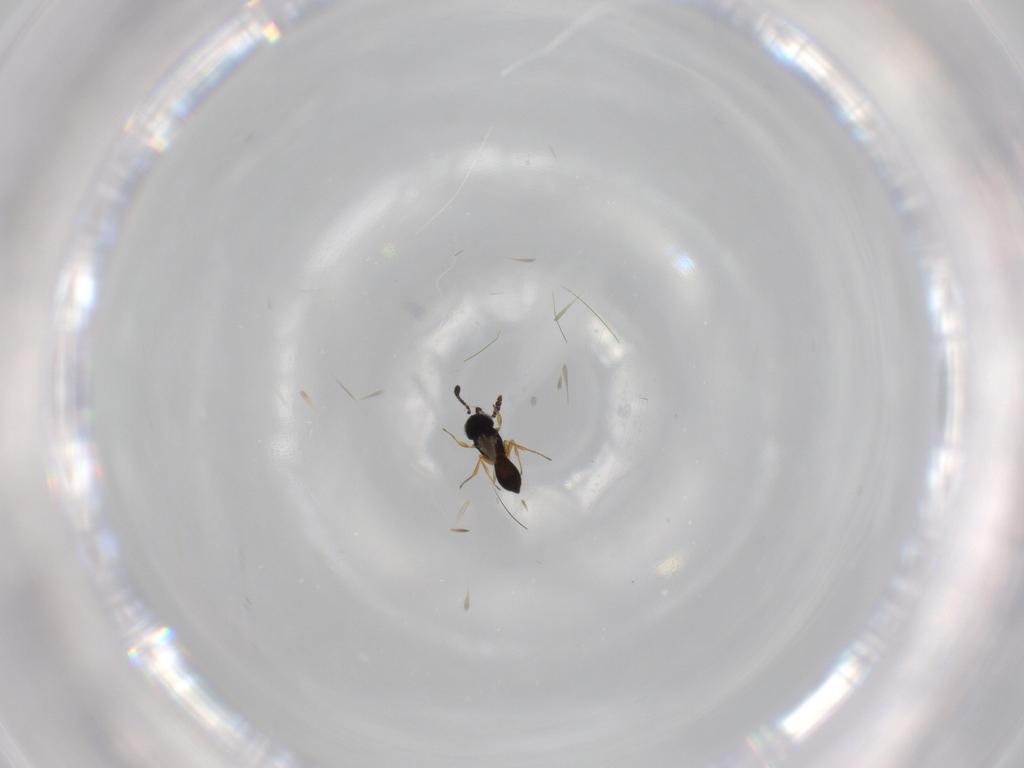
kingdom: Animalia
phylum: Arthropoda
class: Insecta
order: Hymenoptera
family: Scelionidae
